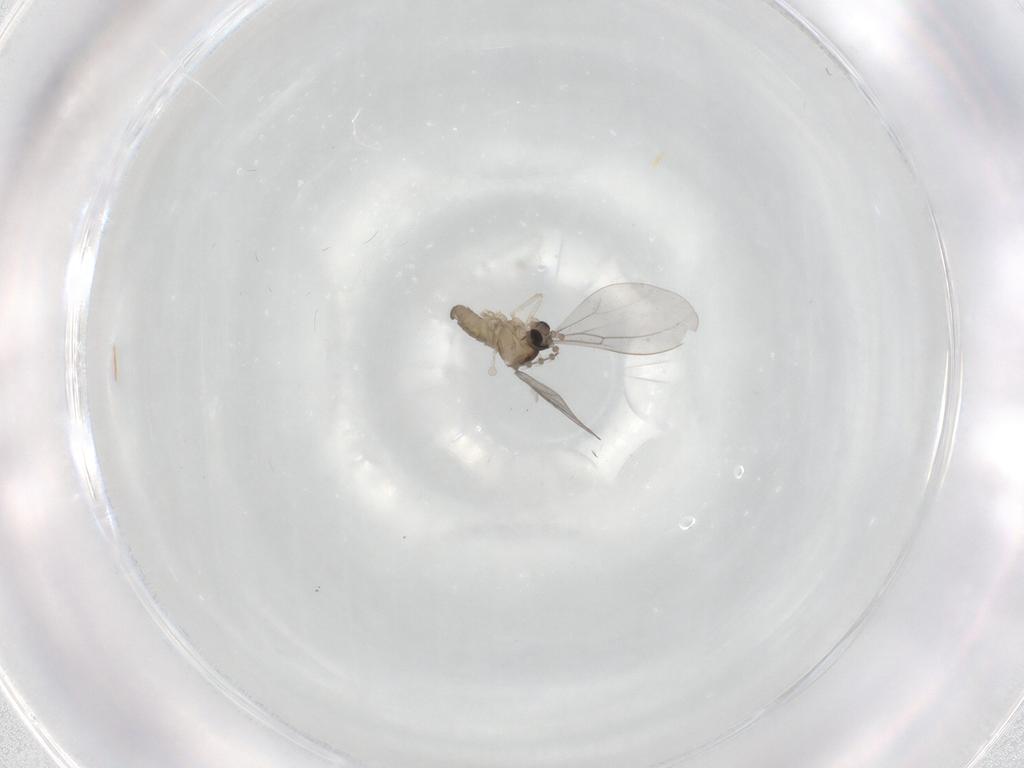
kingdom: Animalia
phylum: Arthropoda
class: Insecta
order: Diptera
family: Cecidomyiidae
